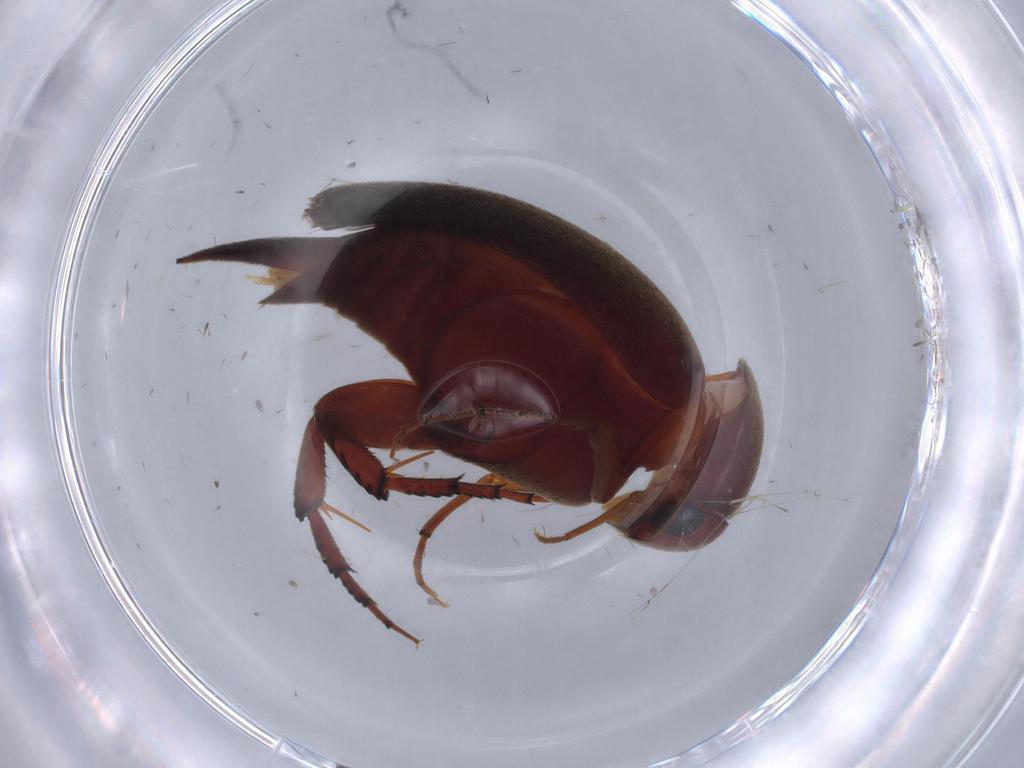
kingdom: Animalia
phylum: Arthropoda
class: Insecta
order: Coleoptera
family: Mordellidae
